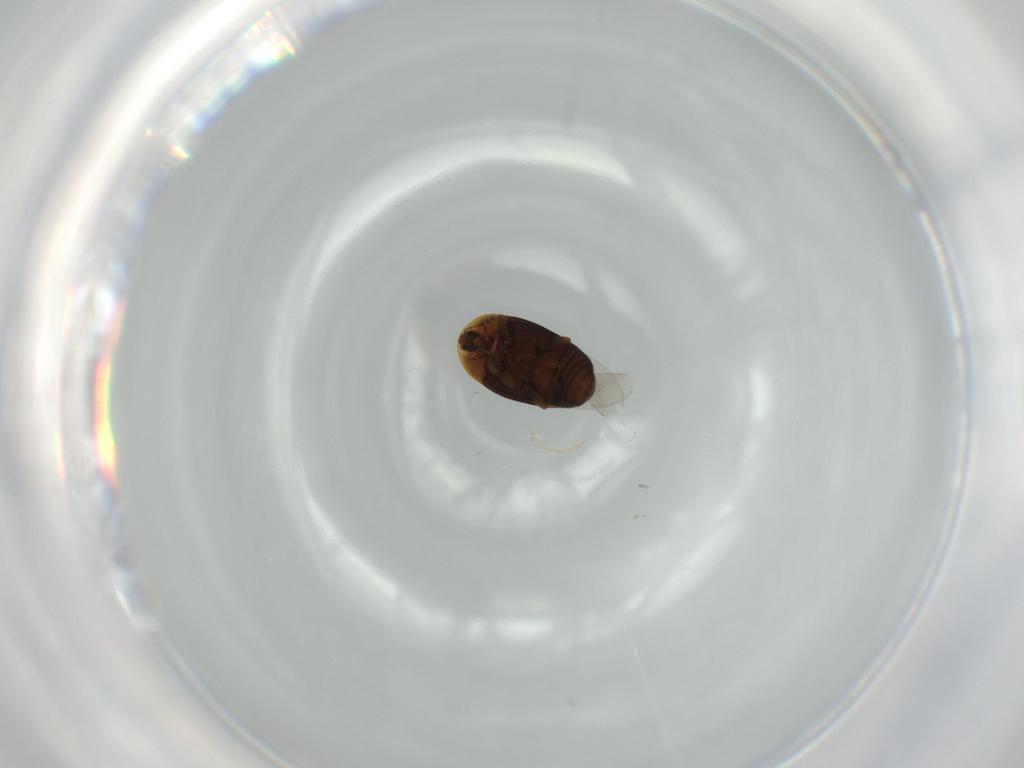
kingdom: Animalia
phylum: Arthropoda
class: Insecta
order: Coleoptera
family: Corylophidae
